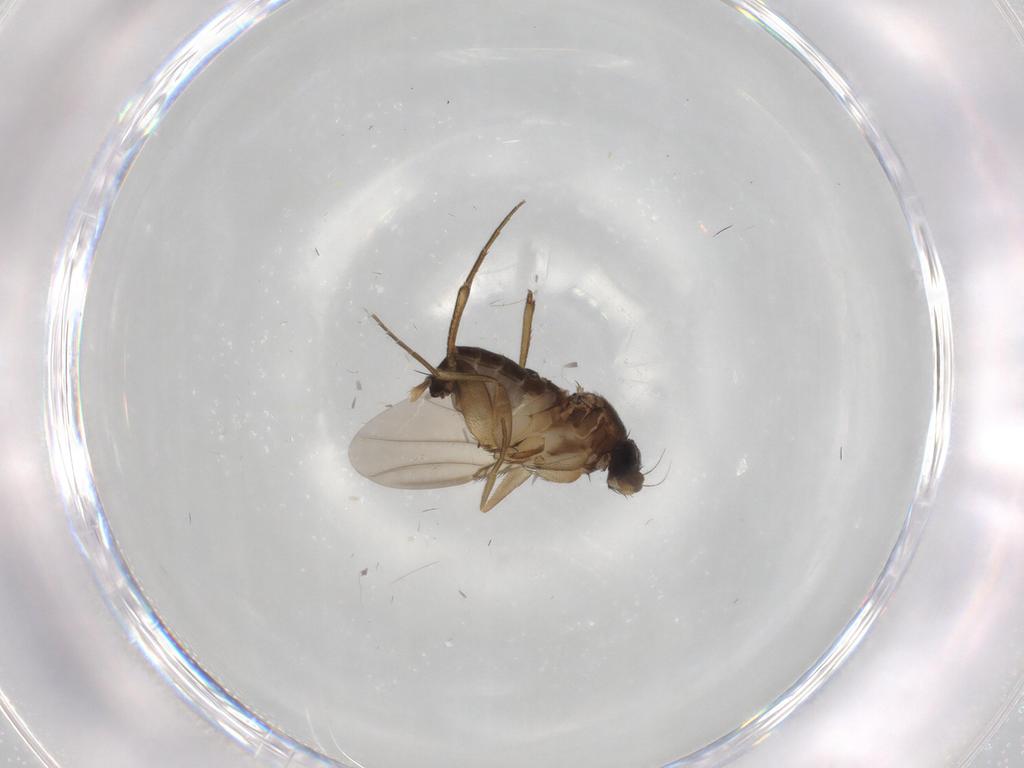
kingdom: Animalia
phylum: Arthropoda
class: Insecta
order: Diptera
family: Phoridae
